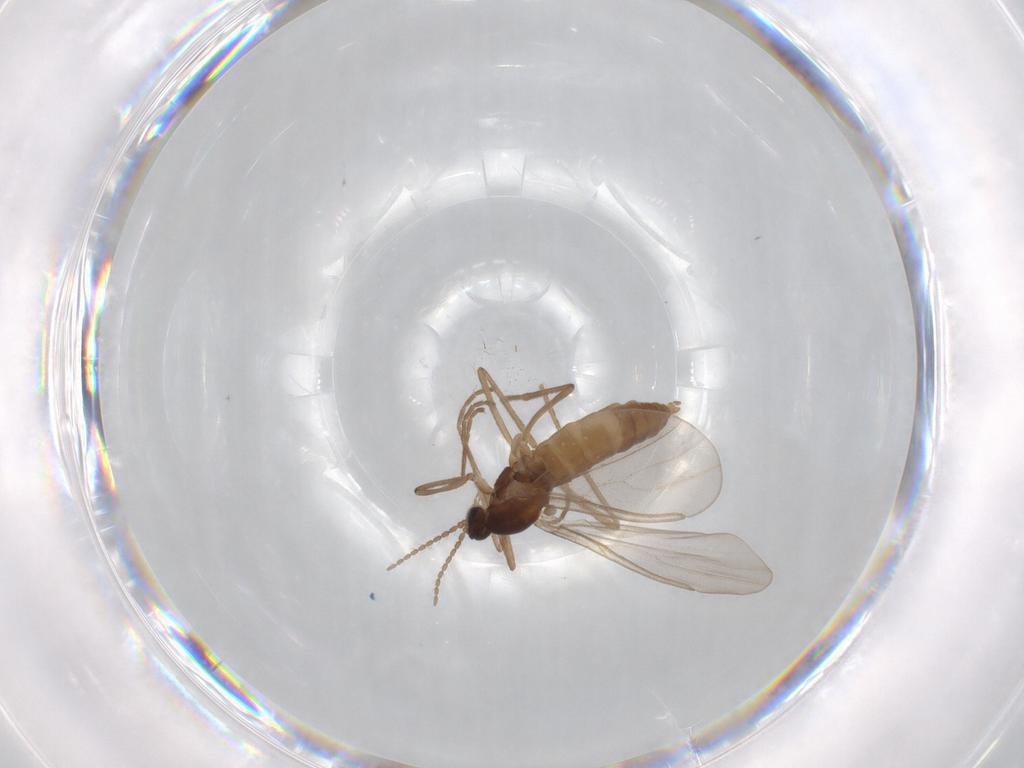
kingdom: Animalia
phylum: Arthropoda
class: Insecta
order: Diptera
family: Cecidomyiidae
